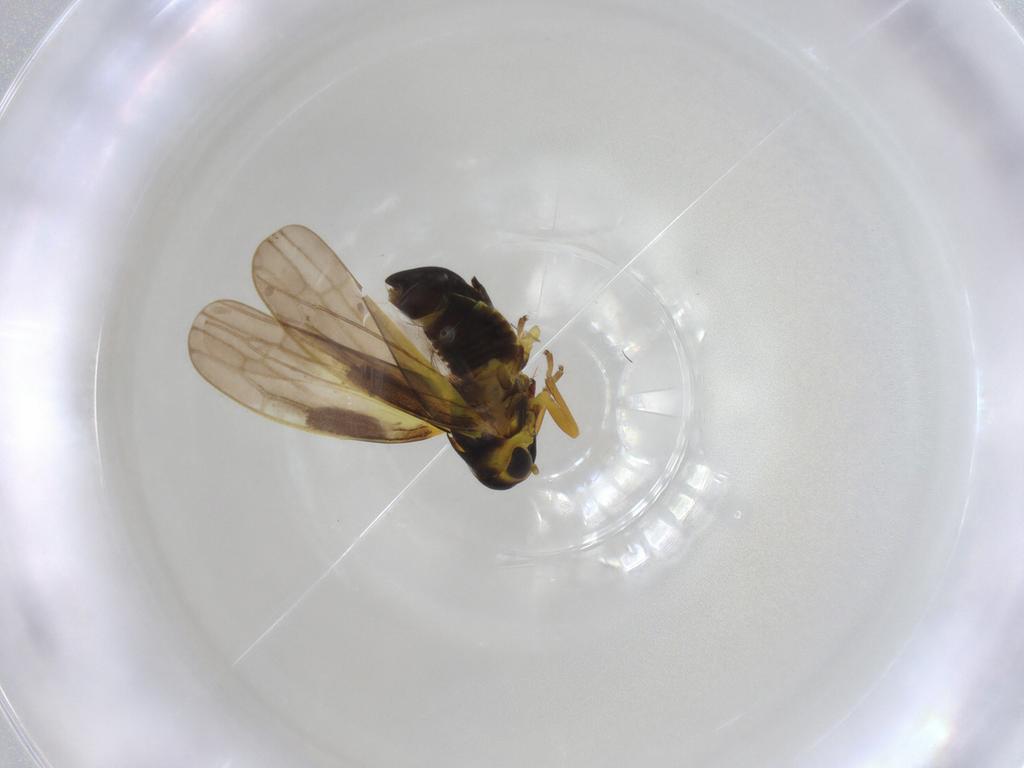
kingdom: Animalia
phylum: Arthropoda
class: Insecta
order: Hemiptera
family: Cicadellidae
